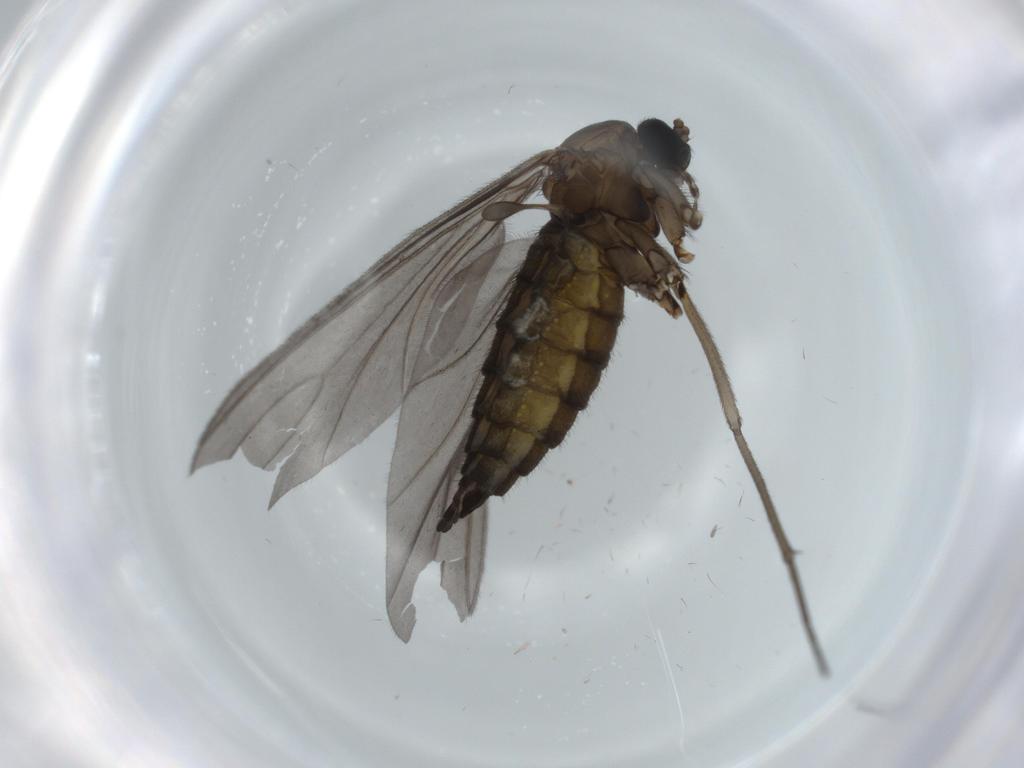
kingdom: Animalia
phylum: Arthropoda
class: Insecta
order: Diptera
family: Sciaridae
